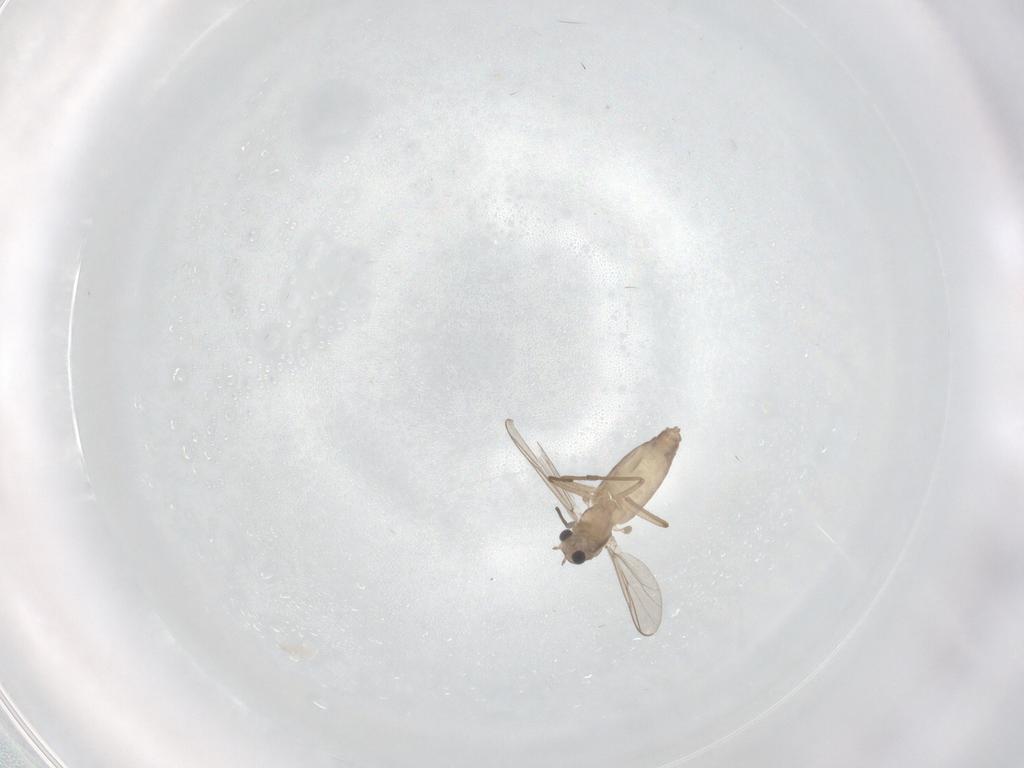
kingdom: Animalia
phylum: Arthropoda
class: Insecta
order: Diptera
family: Chironomidae
